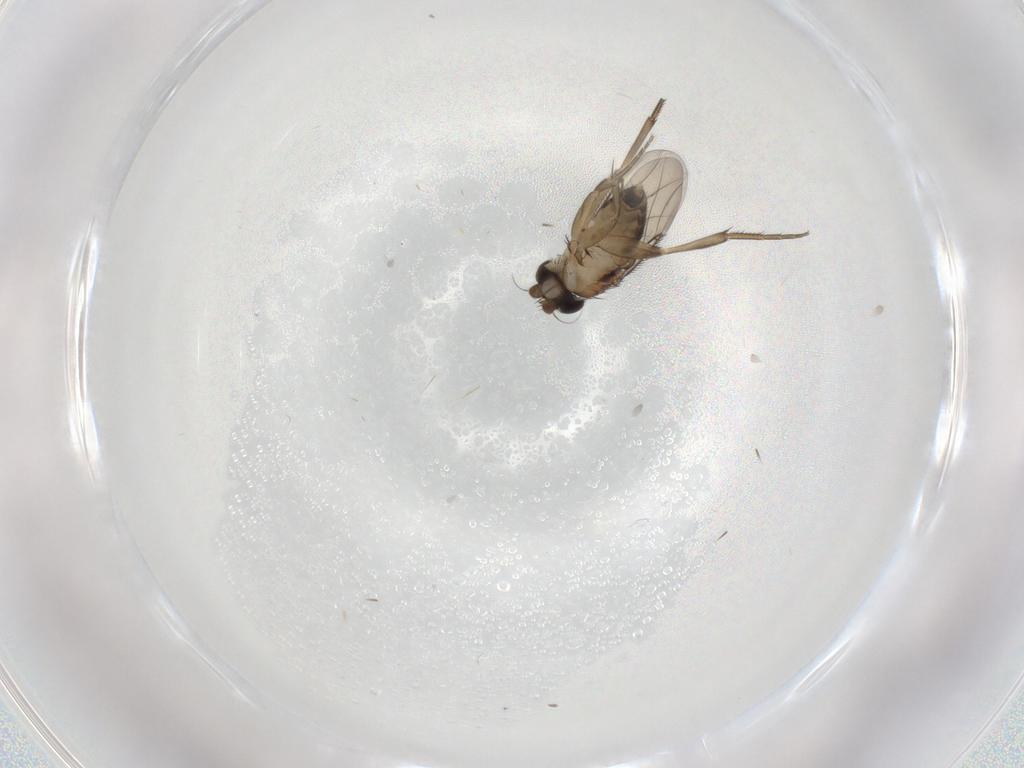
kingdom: Animalia
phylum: Arthropoda
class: Insecta
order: Diptera
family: Phoridae
